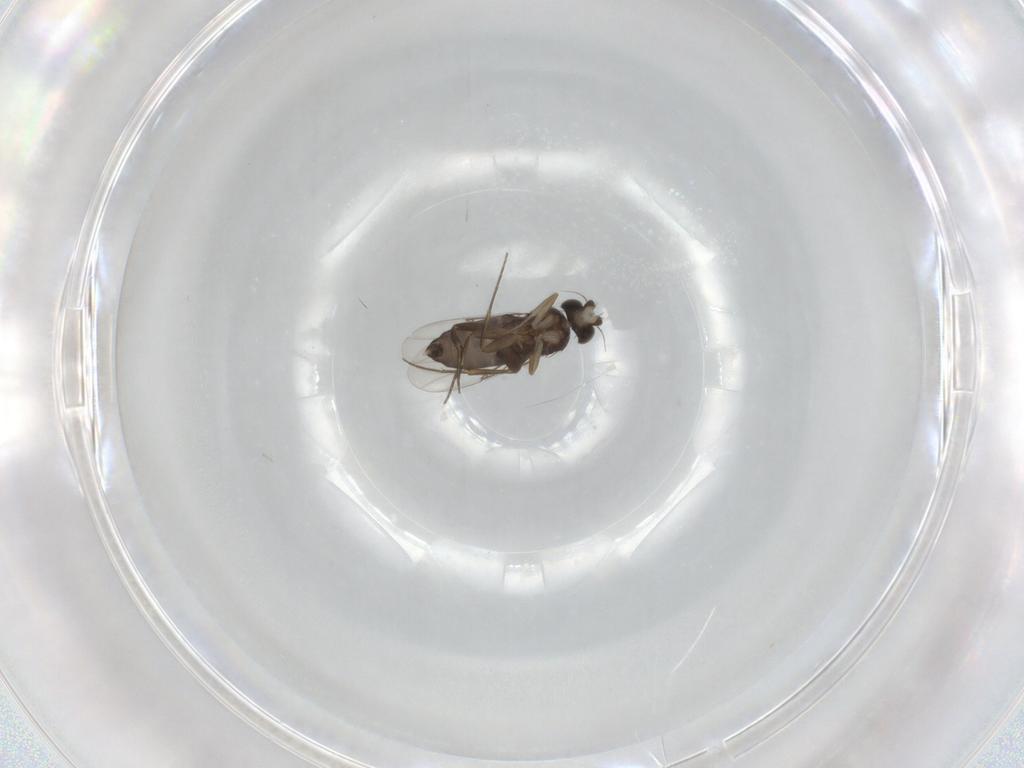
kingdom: Animalia
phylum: Arthropoda
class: Insecta
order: Diptera
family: Phoridae
